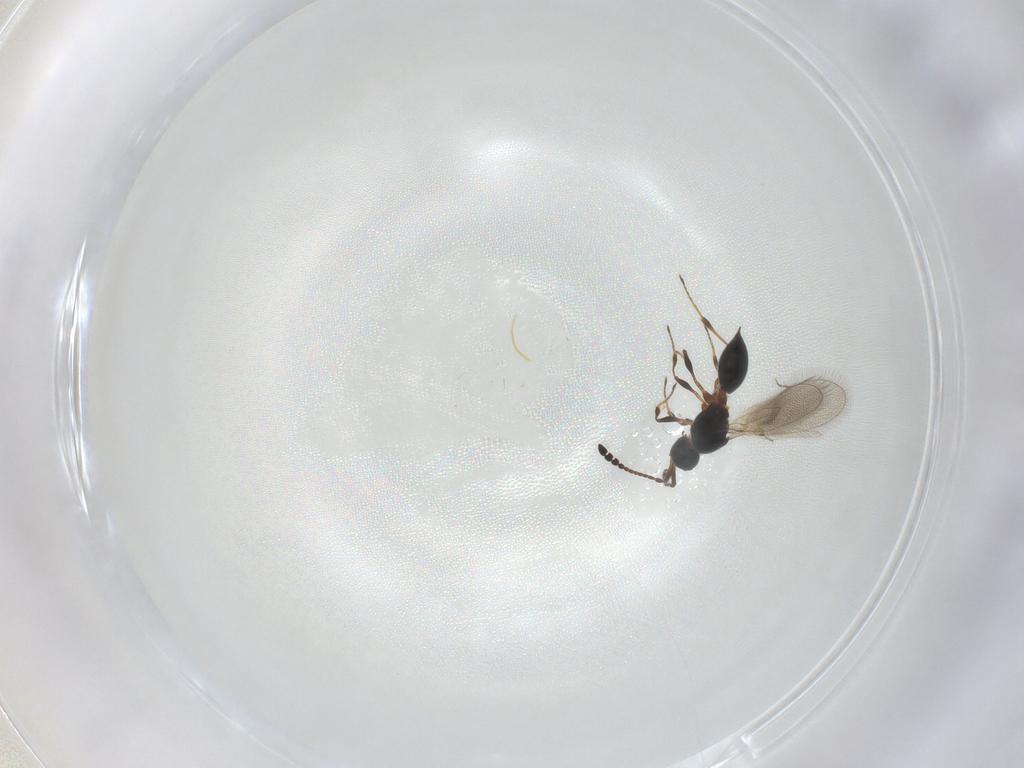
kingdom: Animalia
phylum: Arthropoda
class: Insecta
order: Hymenoptera
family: Diapriidae
